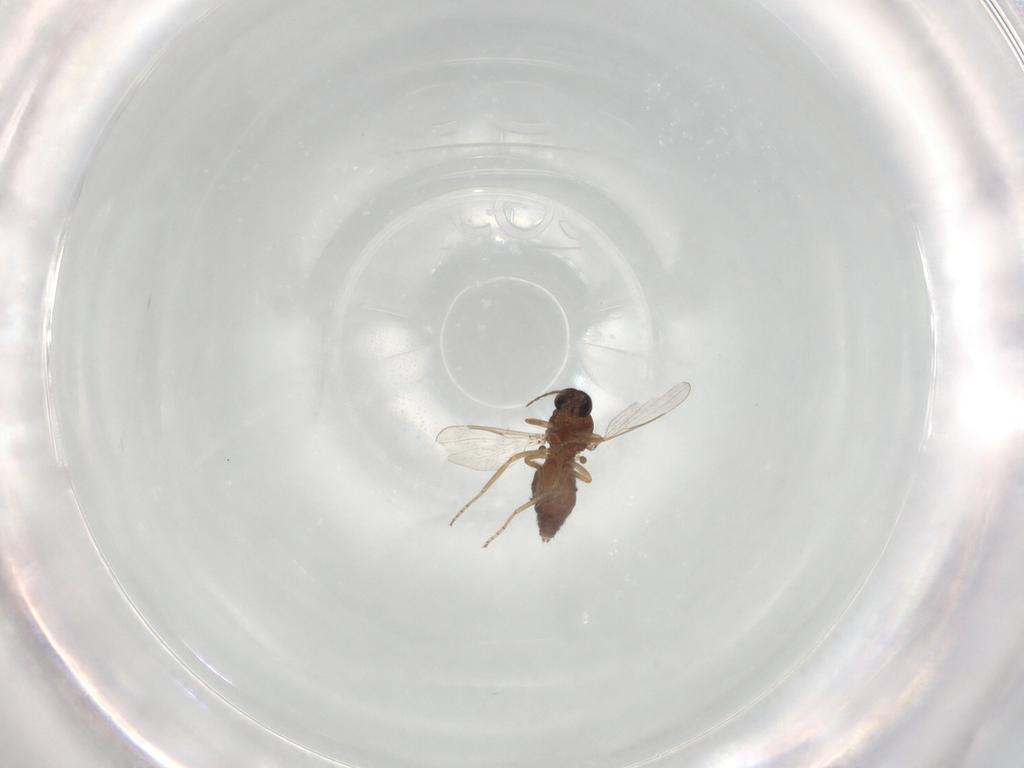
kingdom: Animalia
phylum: Arthropoda
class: Insecta
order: Diptera
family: Ceratopogonidae
